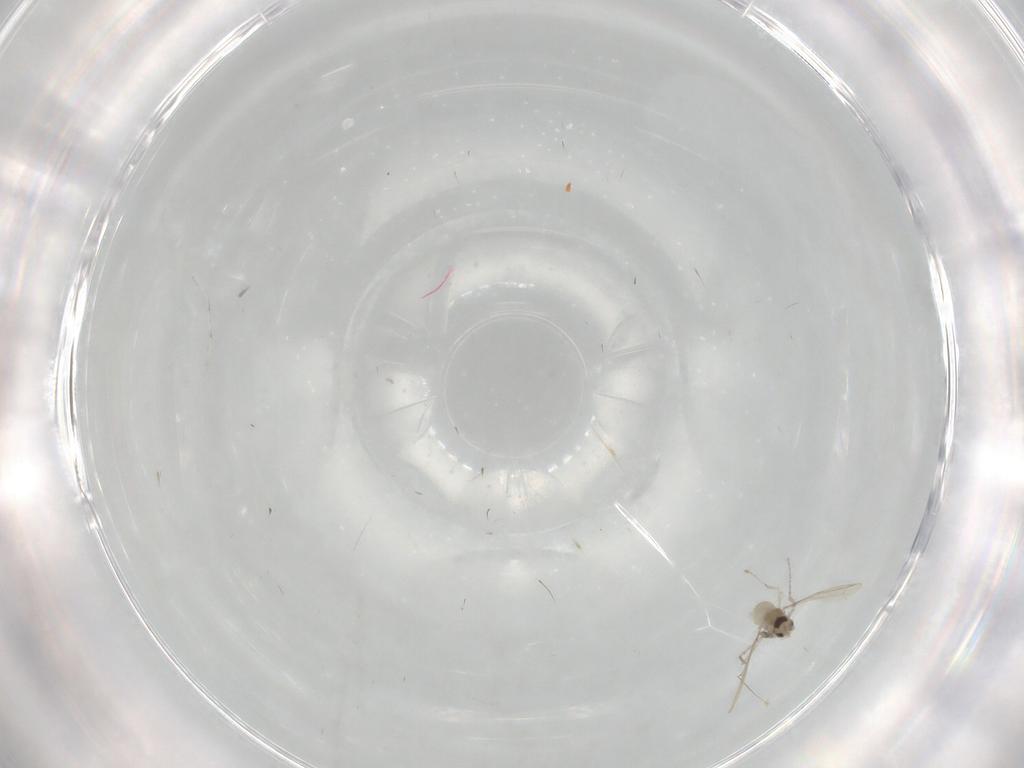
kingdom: Animalia
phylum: Arthropoda
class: Insecta
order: Diptera
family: Cecidomyiidae
